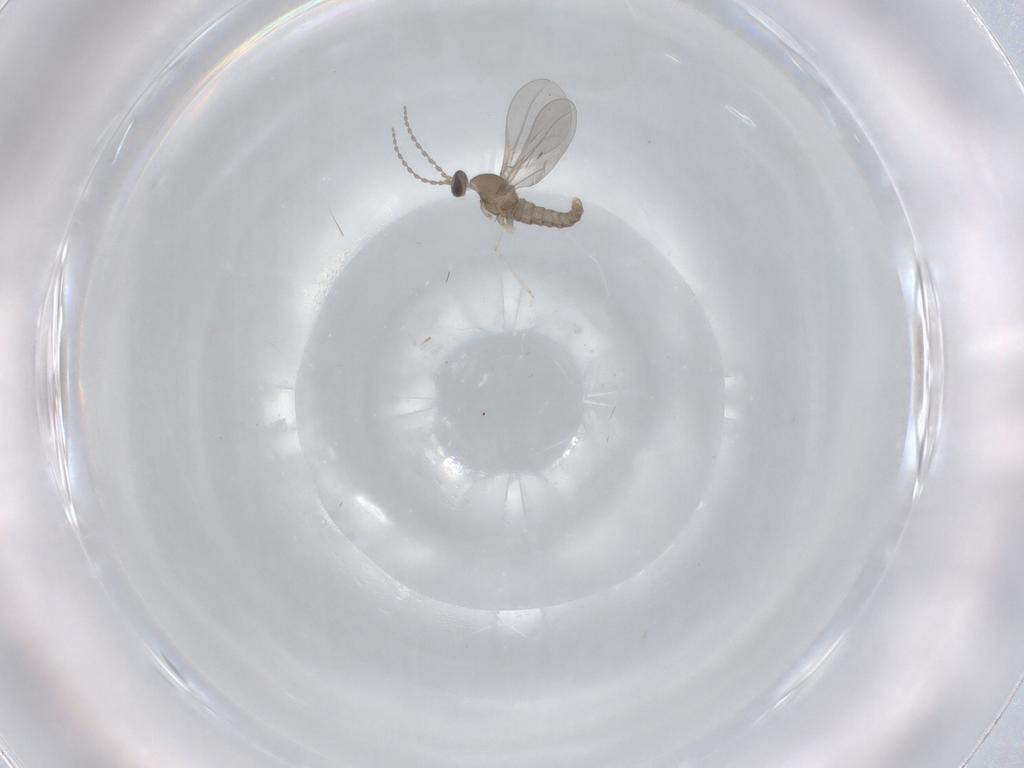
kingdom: Animalia
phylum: Arthropoda
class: Insecta
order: Diptera
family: Cecidomyiidae
